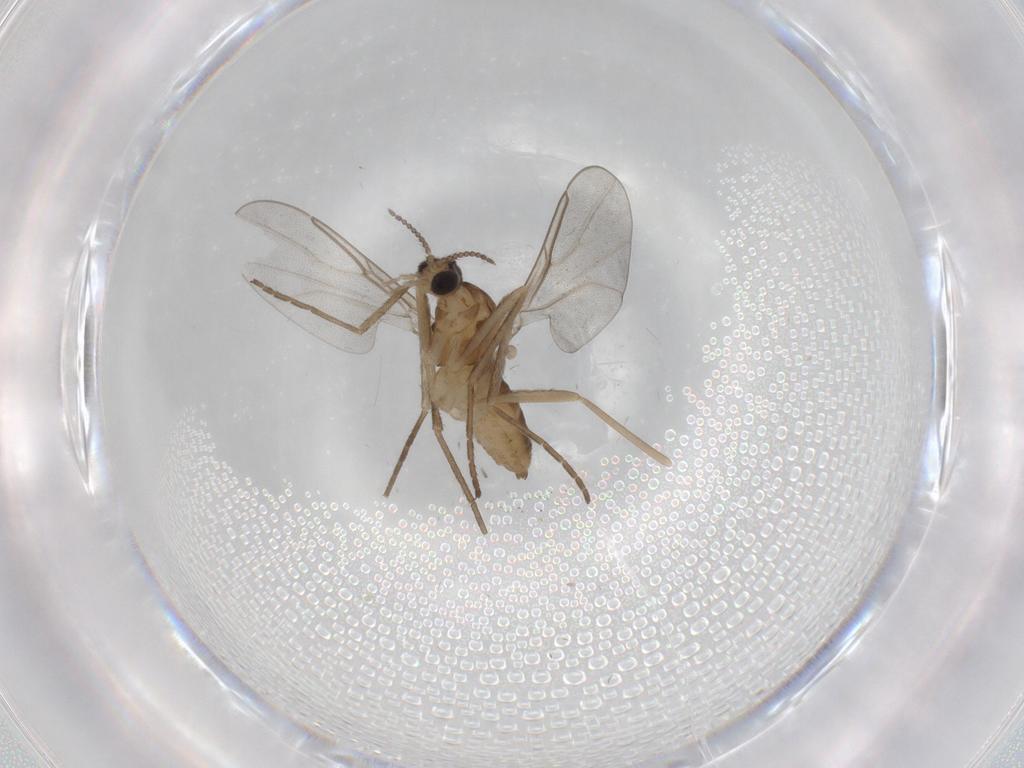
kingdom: Animalia
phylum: Arthropoda
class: Insecta
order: Diptera
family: Cecidomyiidae
